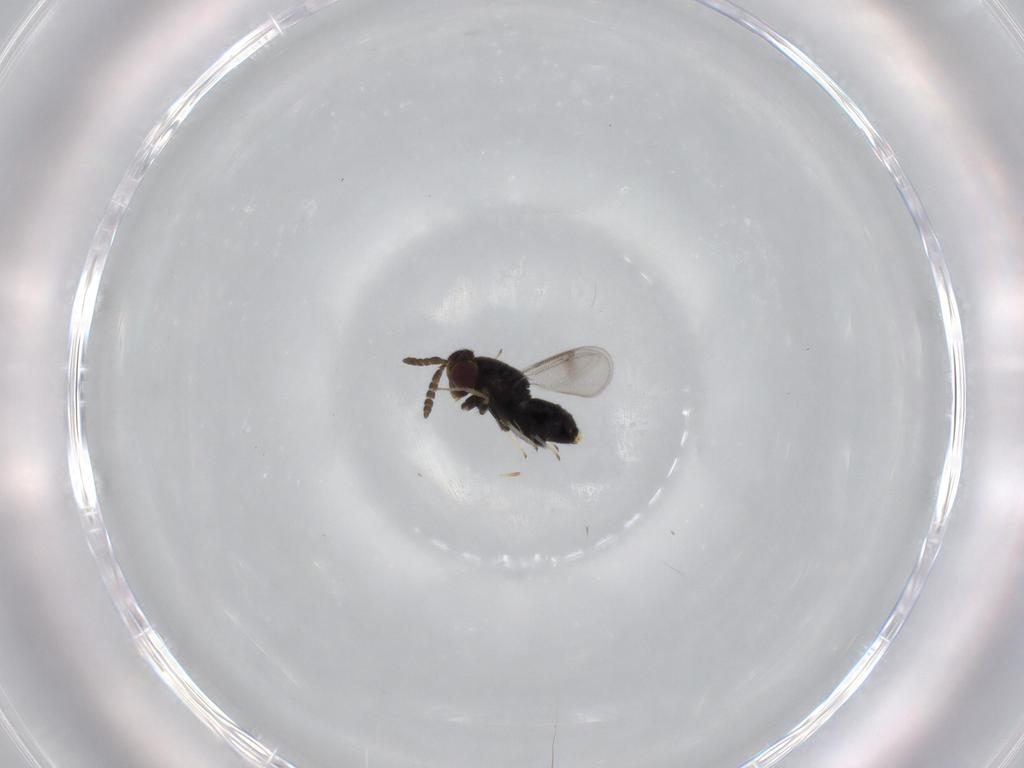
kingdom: Animalia
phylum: Arthropoda
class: Insecta
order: Hymenoptera
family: Aphelinidae
